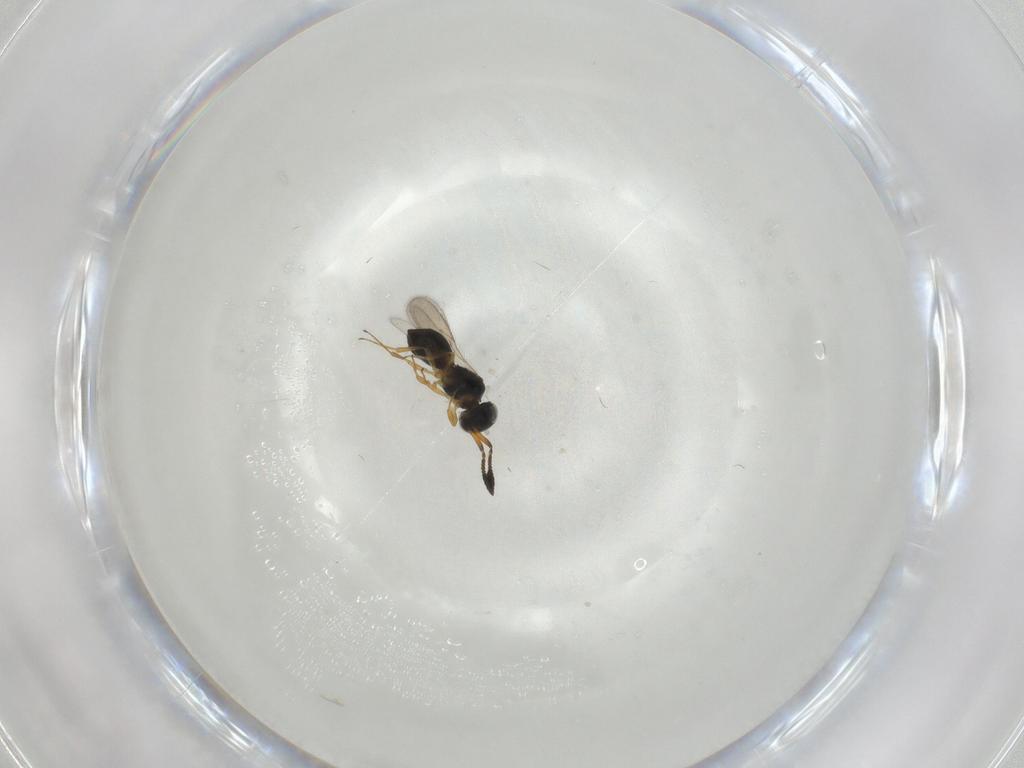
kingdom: Animalia
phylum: Arthropoda
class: Insecta
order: Hymenoptera
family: Scelionidae
